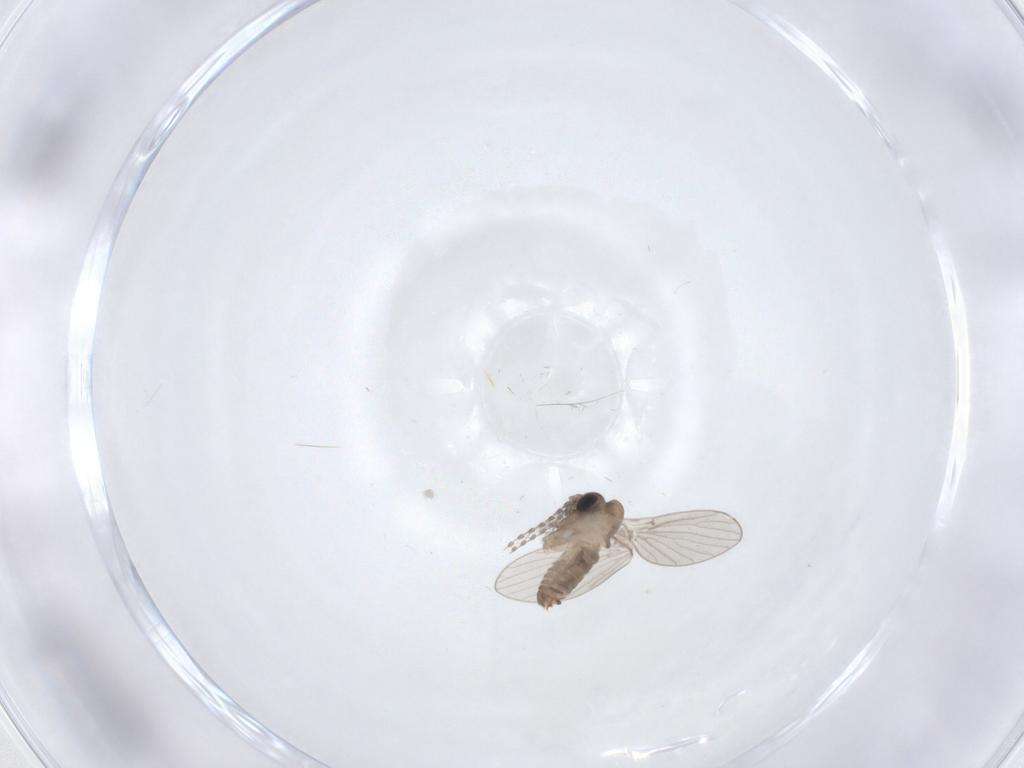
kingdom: Animalia
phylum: Arthropoda
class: Insecta
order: Diptera
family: Psychodidae
